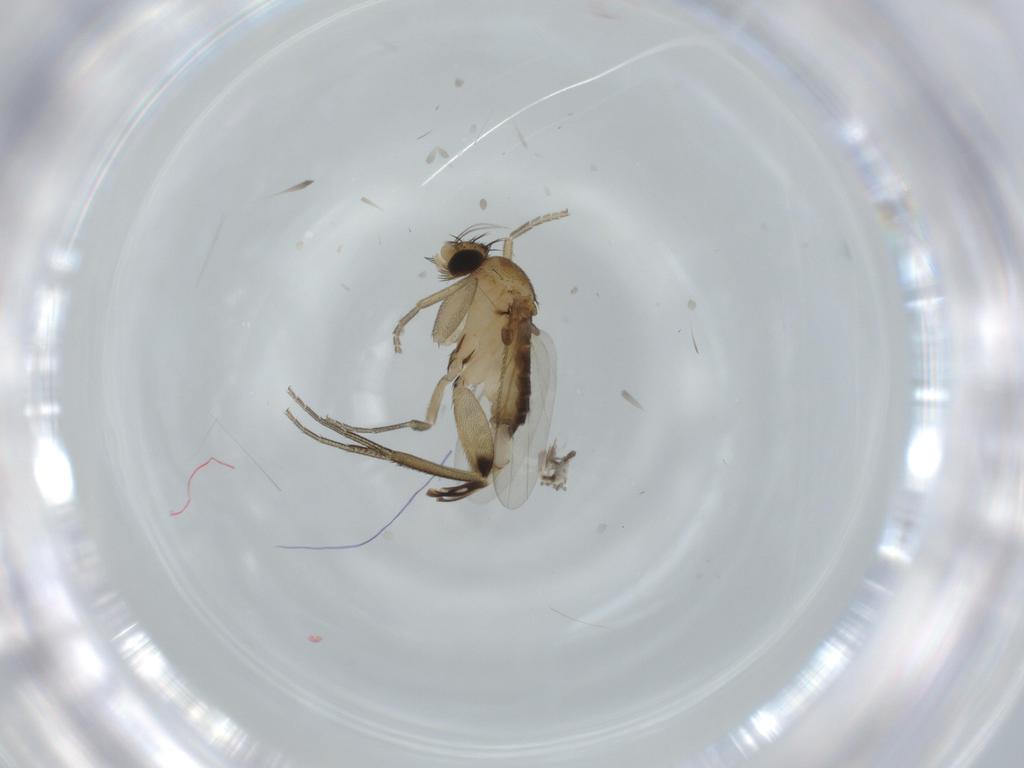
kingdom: Animalia
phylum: Arthropoda
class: Insecta
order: Diptera
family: Phoridae
